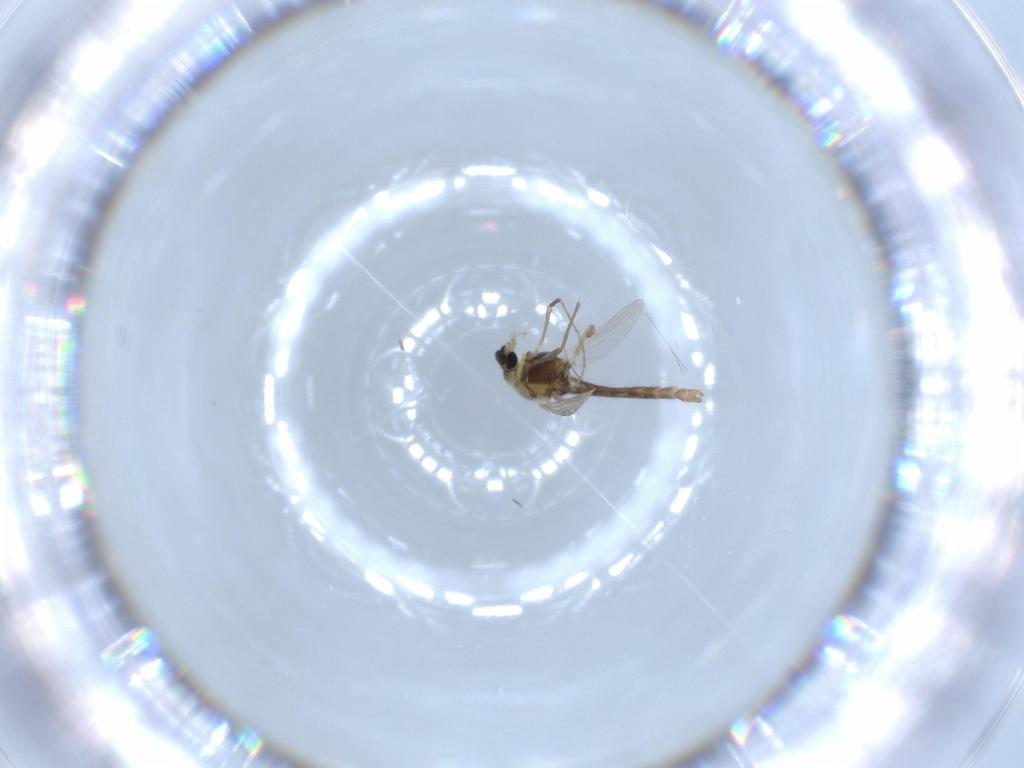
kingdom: Animalia
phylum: Arthropoda
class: Insecta
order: Diptera
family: Chironomidae
